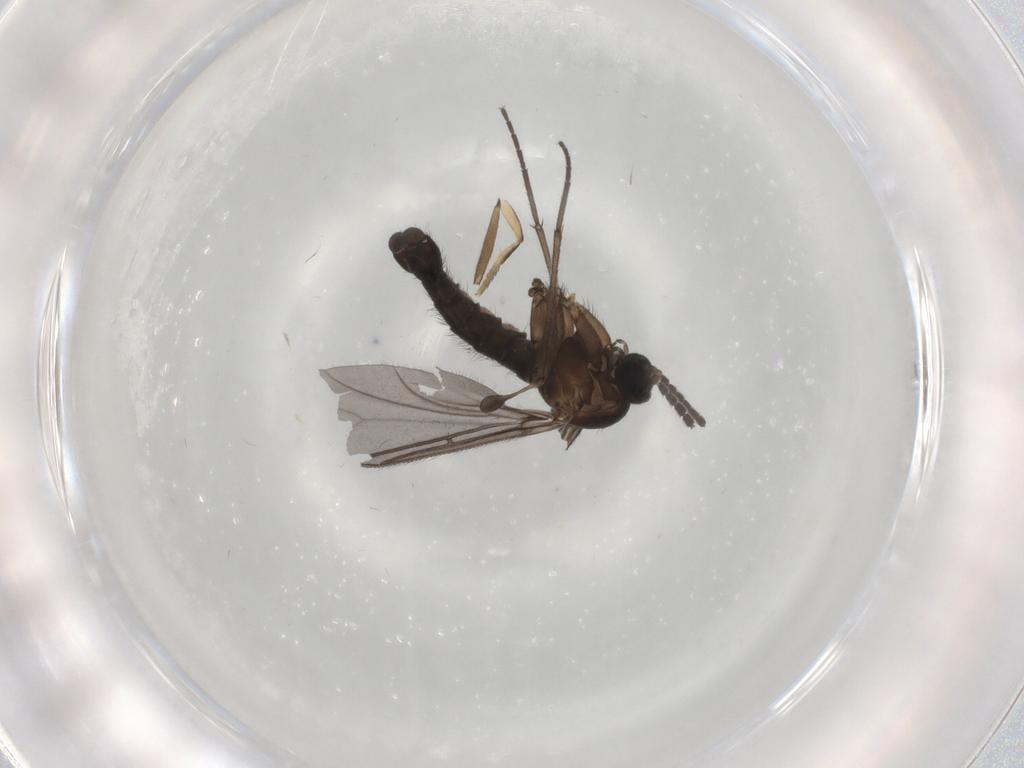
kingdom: Animalia
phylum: Arthropoda
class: Insecta
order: Diptera
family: Sciaridae
